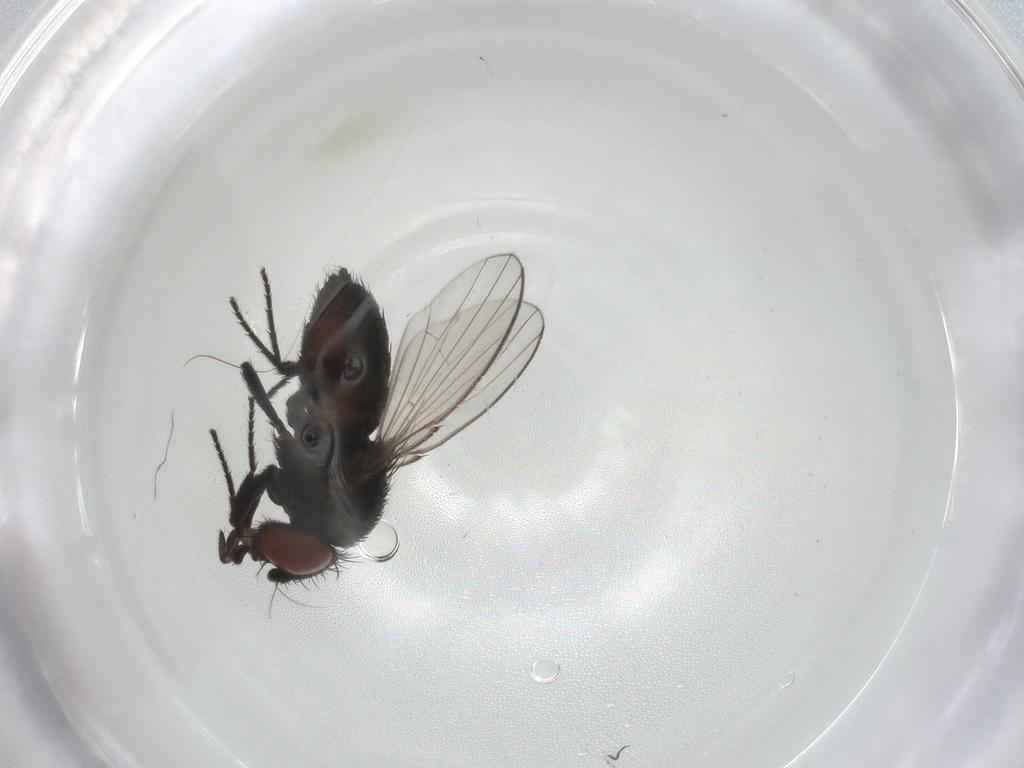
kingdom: Animalia
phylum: Arthropoda
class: Insecta
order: Diptera
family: Milichiidae
